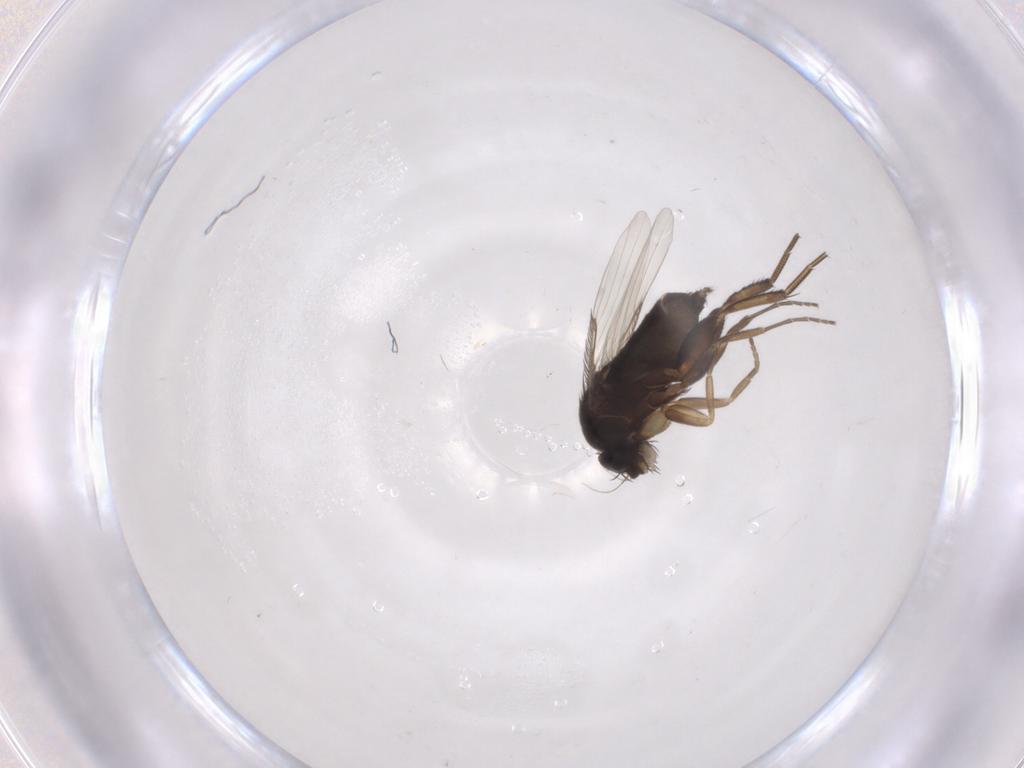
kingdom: Animalia
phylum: Arthropoda
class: Insecta
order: Diptera
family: Phoridae
